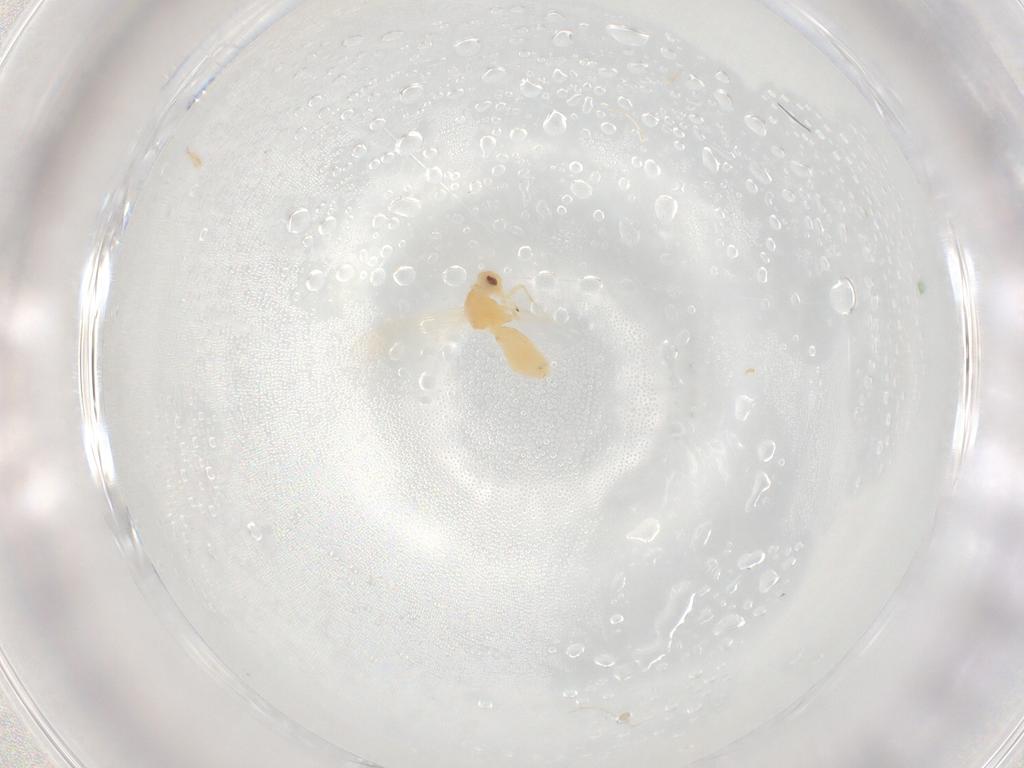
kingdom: Animalia
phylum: Arthropoda
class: Insecta
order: Hemiptera
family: Aleyrodidae
